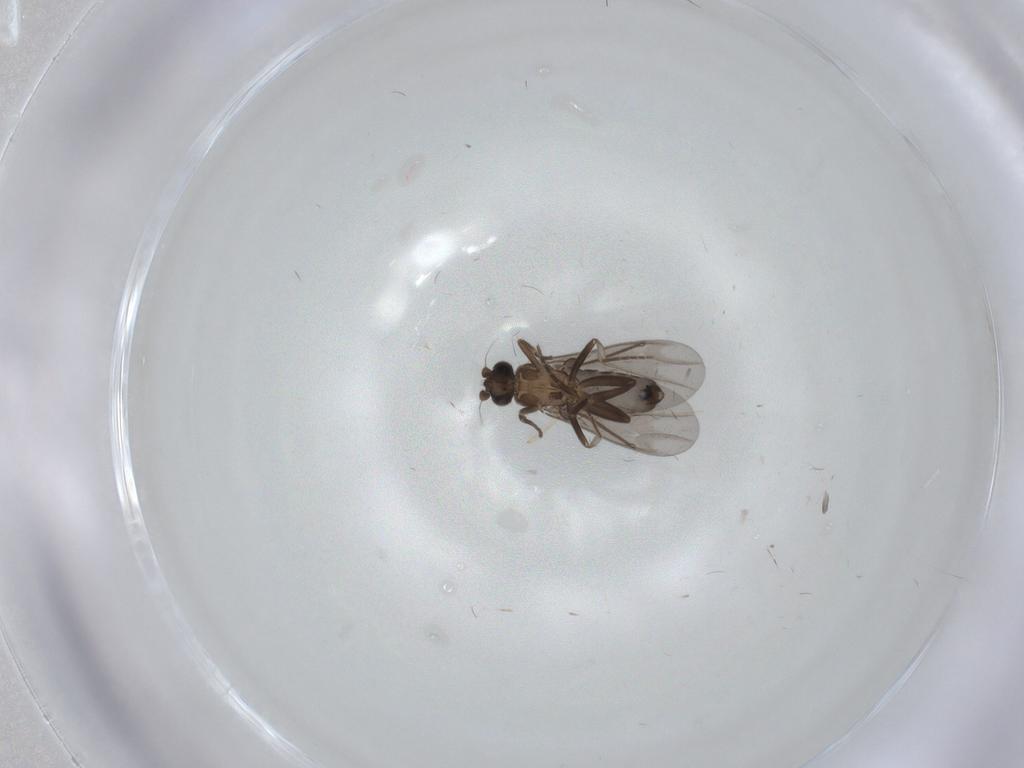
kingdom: Animalia
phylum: Arthropoda
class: Insecta
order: Diptera
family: Phoridae
